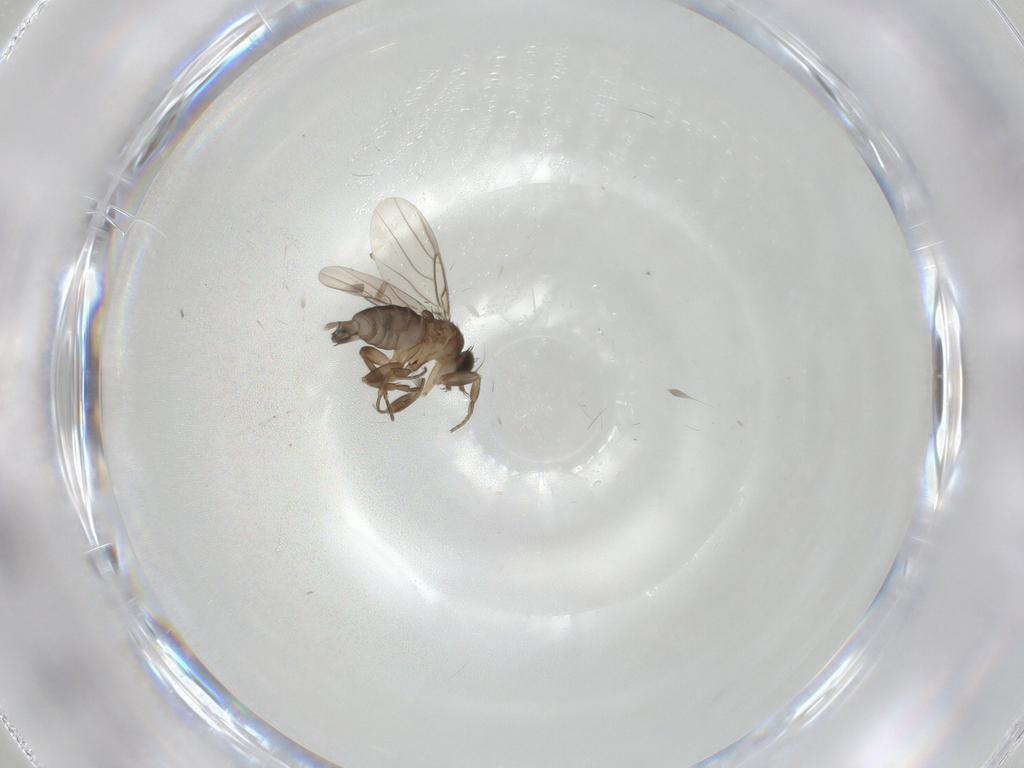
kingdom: Animalia
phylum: Arthropoda
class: Insecta
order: Diptera
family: Ceratopogonidae
